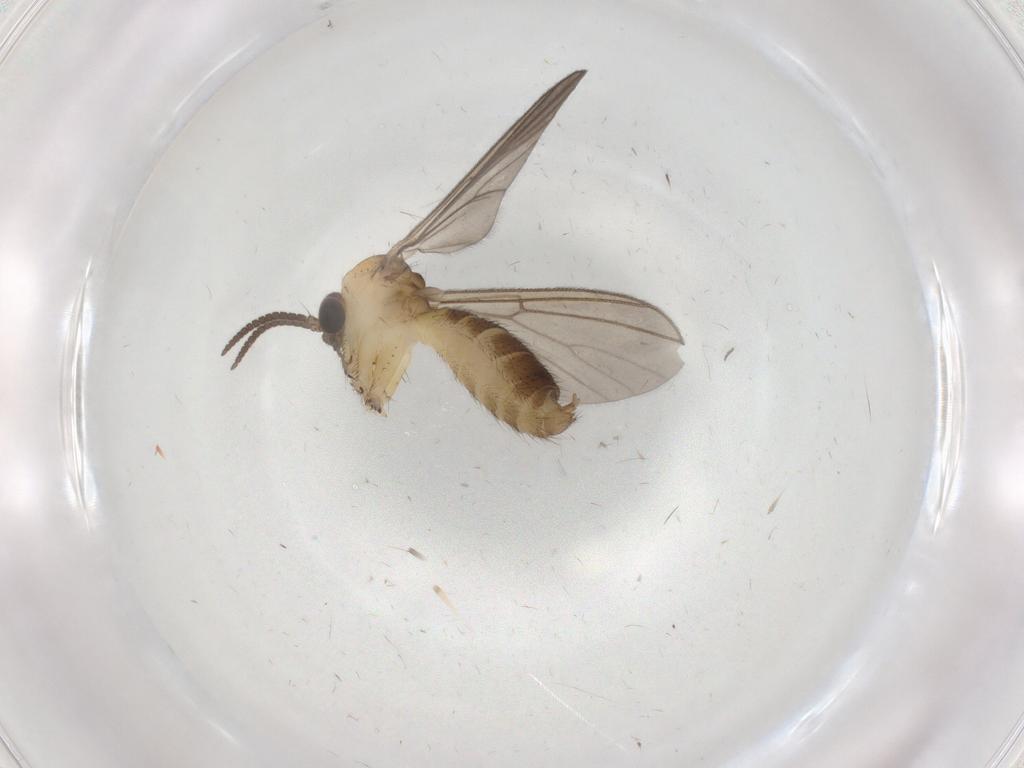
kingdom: Animalia
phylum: Arthropoda
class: Insecta
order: Diptera
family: Mycetophilidae
